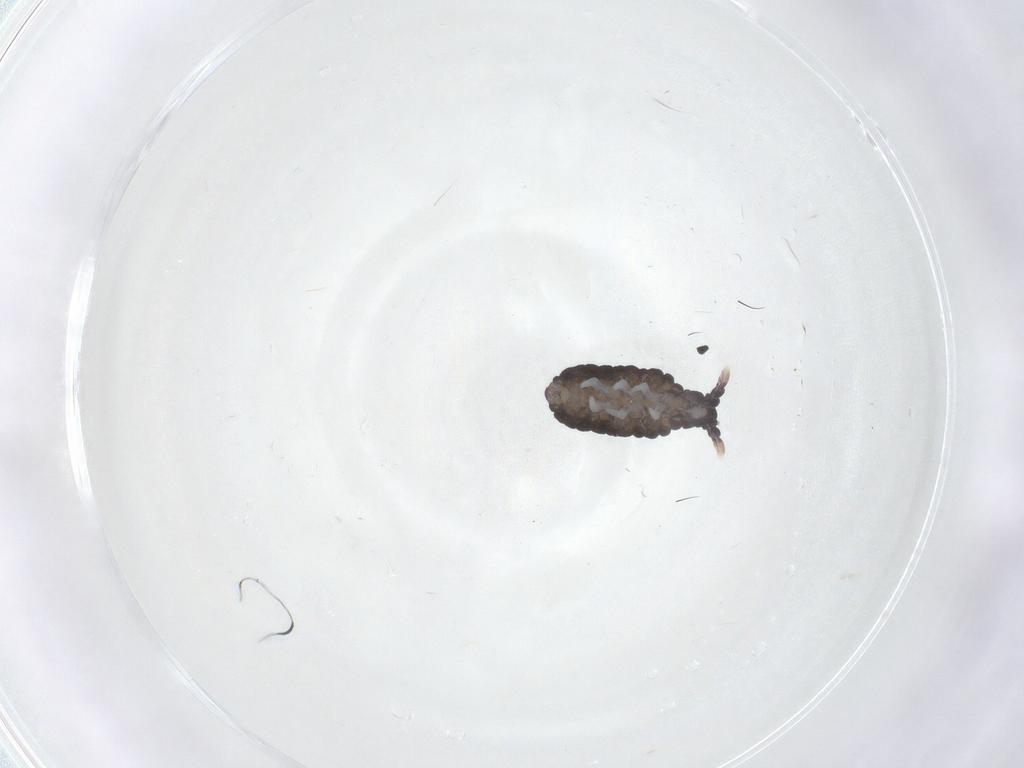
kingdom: Animalia
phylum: Arthropoda
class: Collembola
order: Poduromorpha
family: Neanuridae
